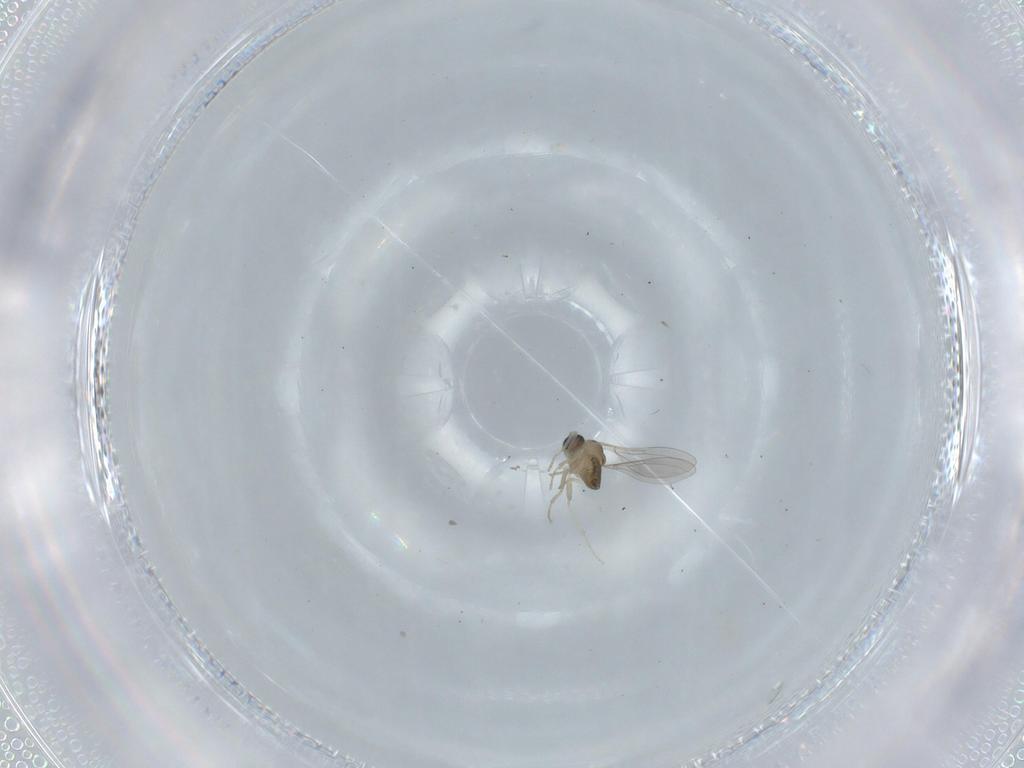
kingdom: Animalia
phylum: Arthropoda
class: Insecta
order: Diptera
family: Cecidomyiidae
